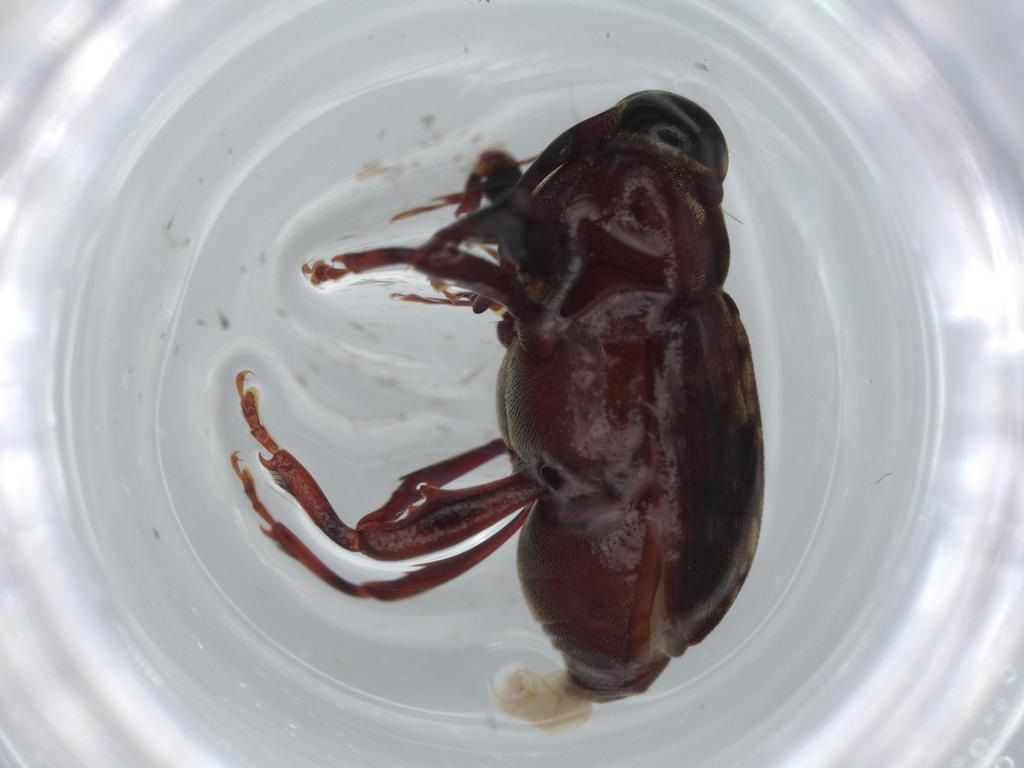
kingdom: Animalia
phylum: Arthropoda
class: Insecta
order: Coleoptera
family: Curculionidae
